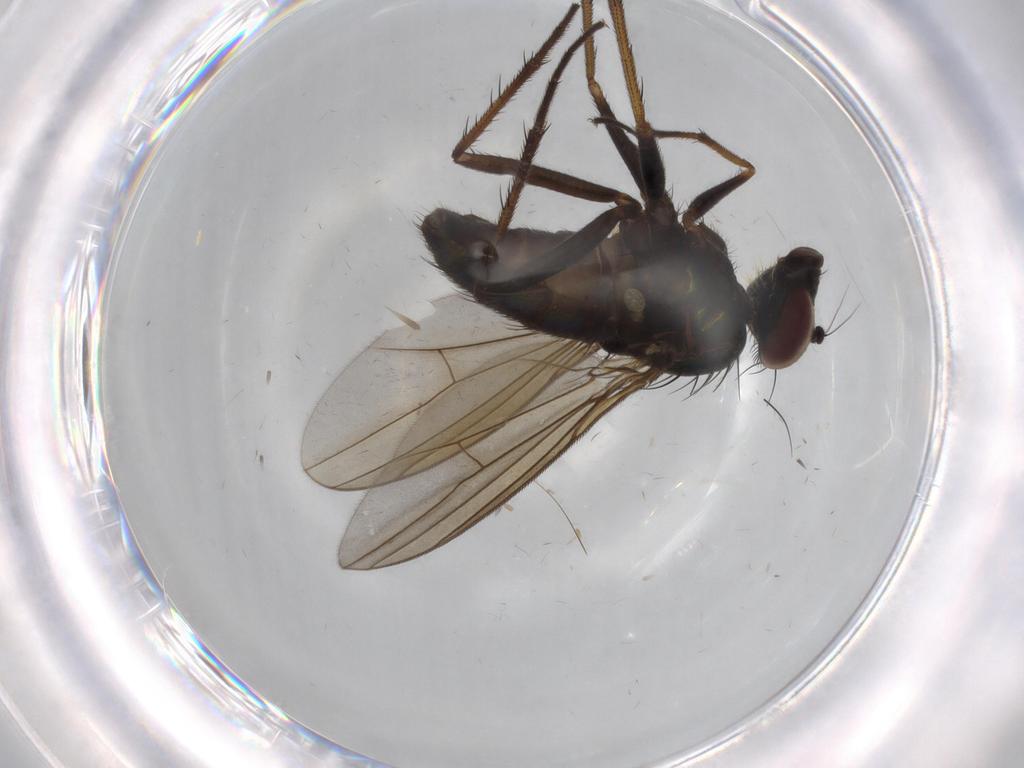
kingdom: Animalia
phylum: Arthropoda
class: Insecta
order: Diptera
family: Dolichopodidae
